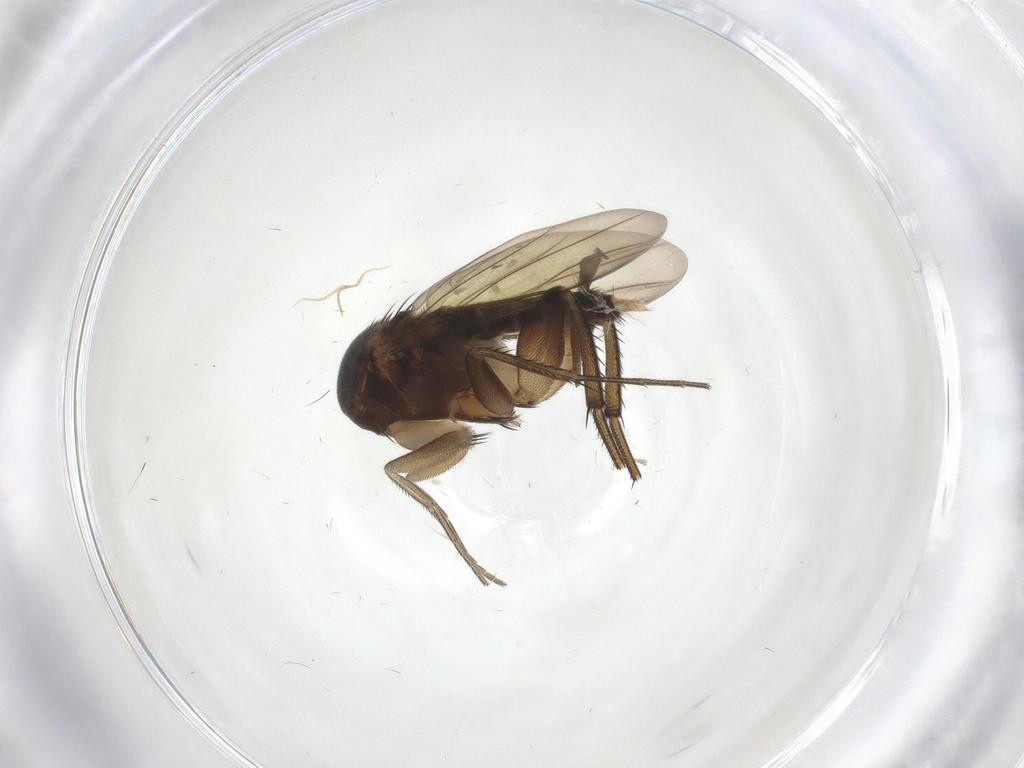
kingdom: Animalia
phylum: Arthropoda
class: Insecta
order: Diptera
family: Phoridae
